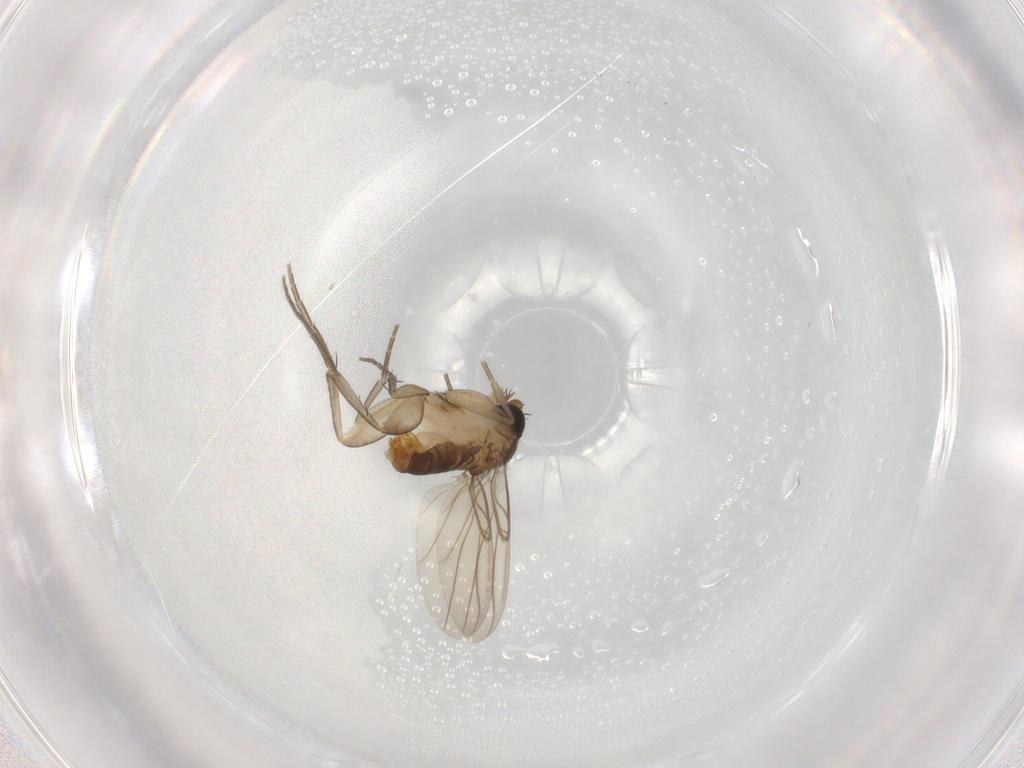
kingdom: Animalia
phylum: Arthropoda
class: Insecta
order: Diptera
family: Phoridae
